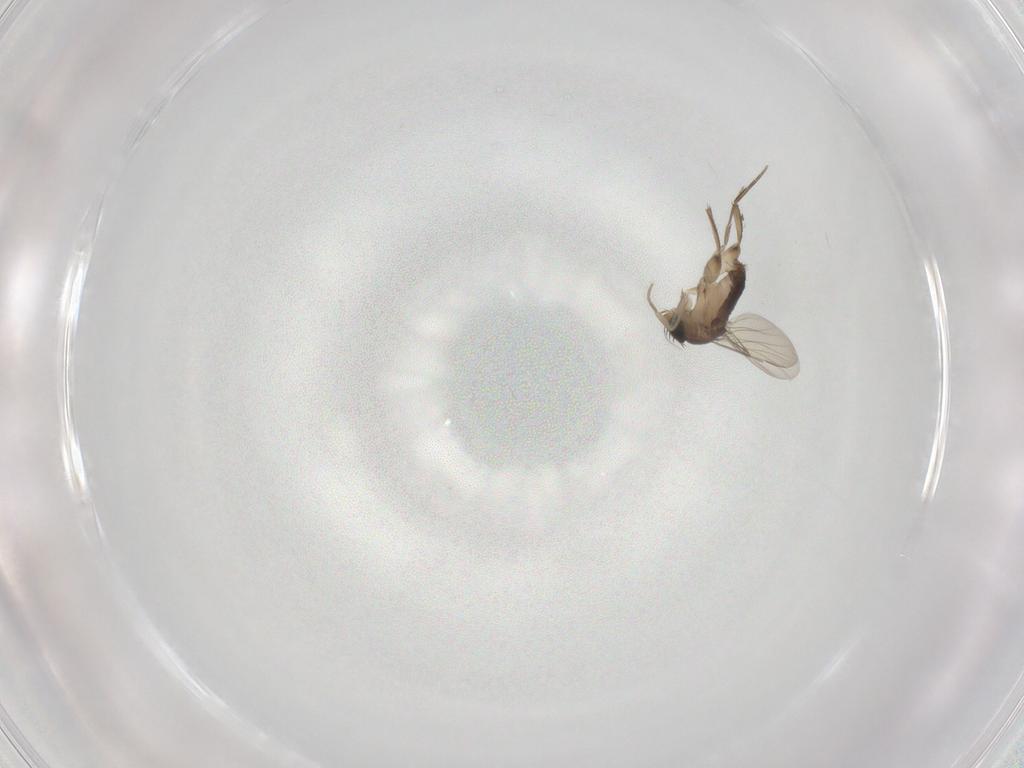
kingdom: Animalia
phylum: Arthropoda
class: Insecta
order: Diptera
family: Phoridae
